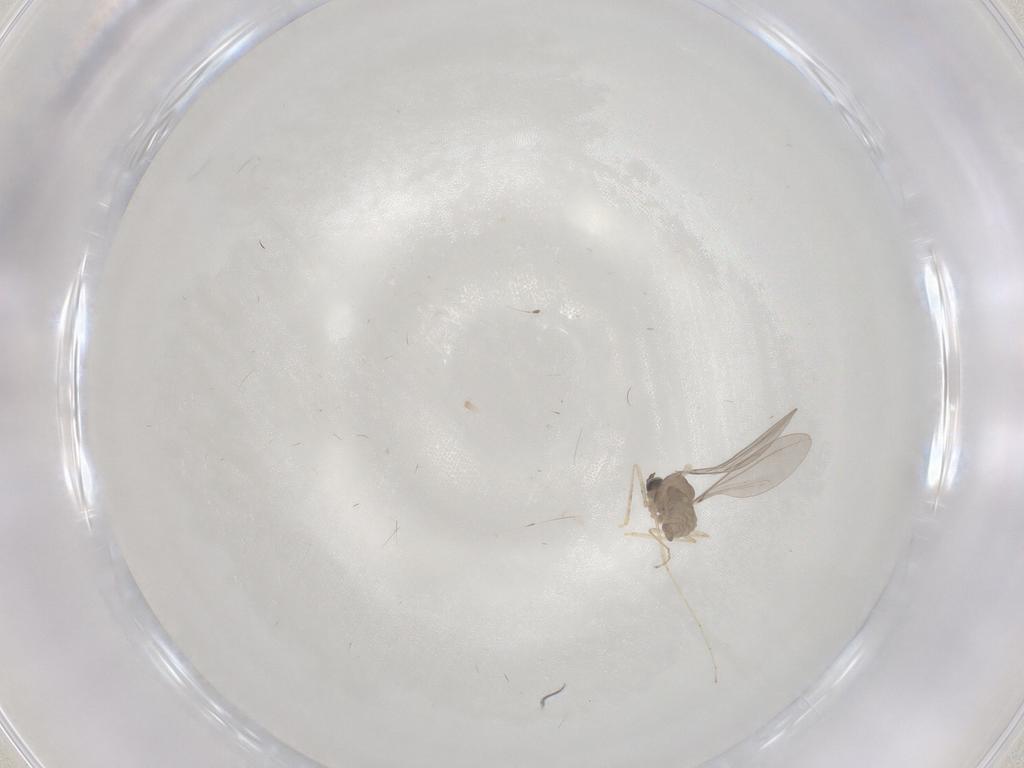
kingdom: Animalia
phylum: Arthropoda
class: Insecta
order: Diptera
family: Cecidomyiidae
